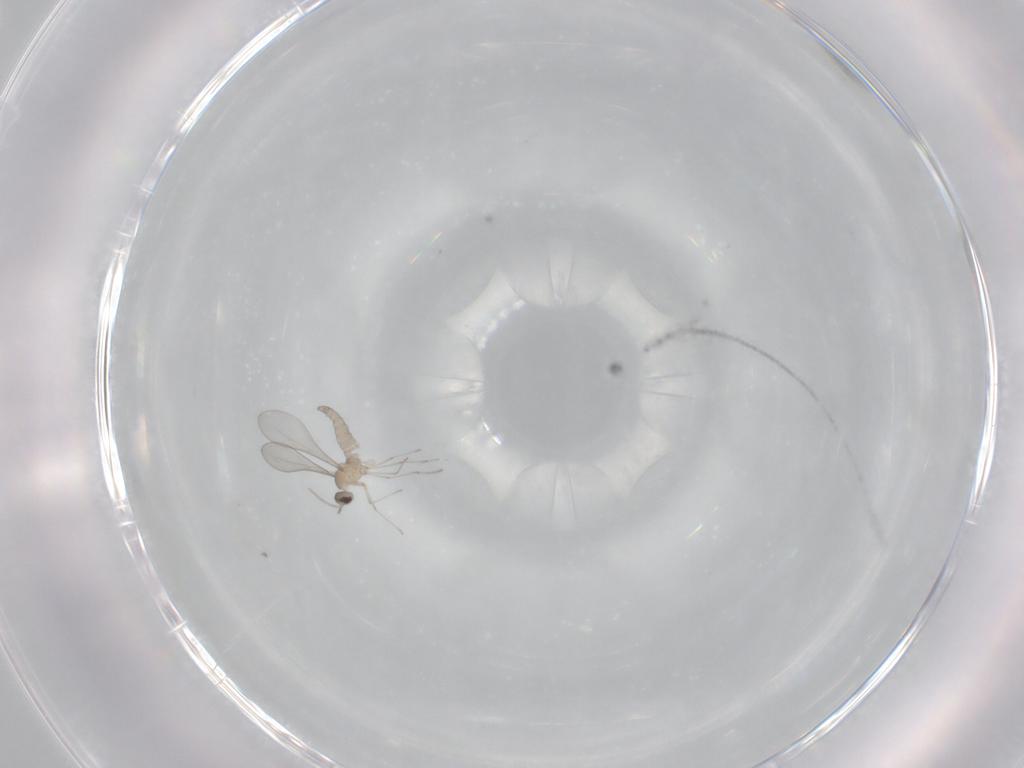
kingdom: Animalia
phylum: Arthropoda
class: Insecta
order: Diptera
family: Cecidomyiidae
